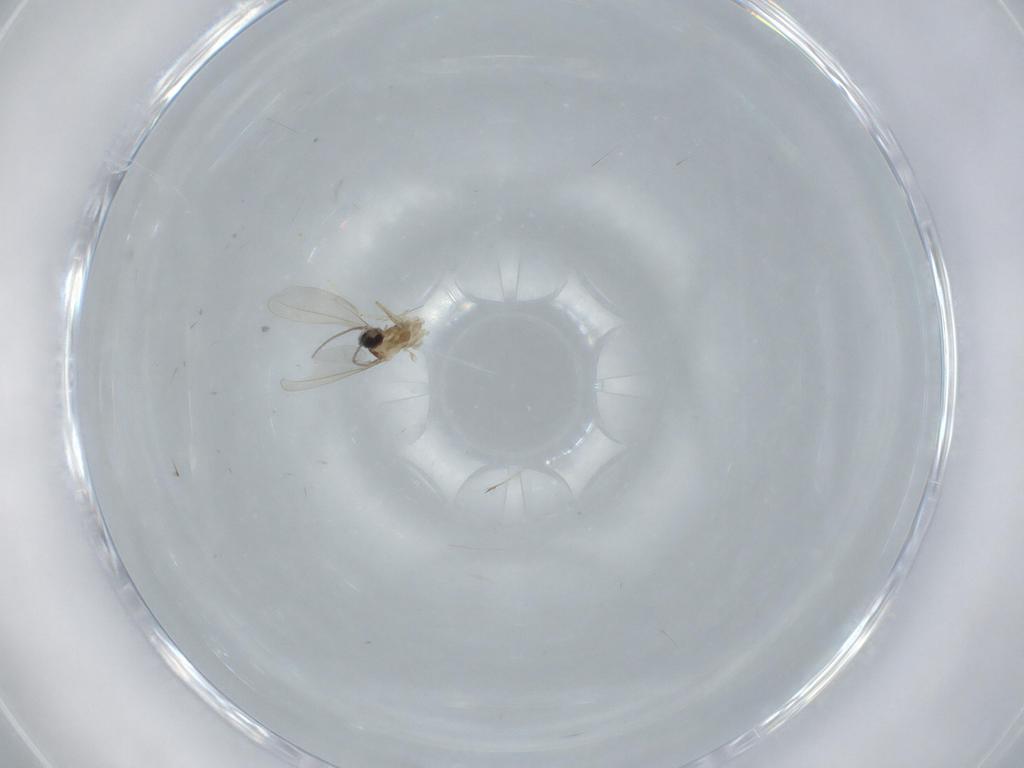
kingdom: Animalia
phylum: Arthropoda
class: Insecta
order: Diptera
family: Cecidomyiidae
